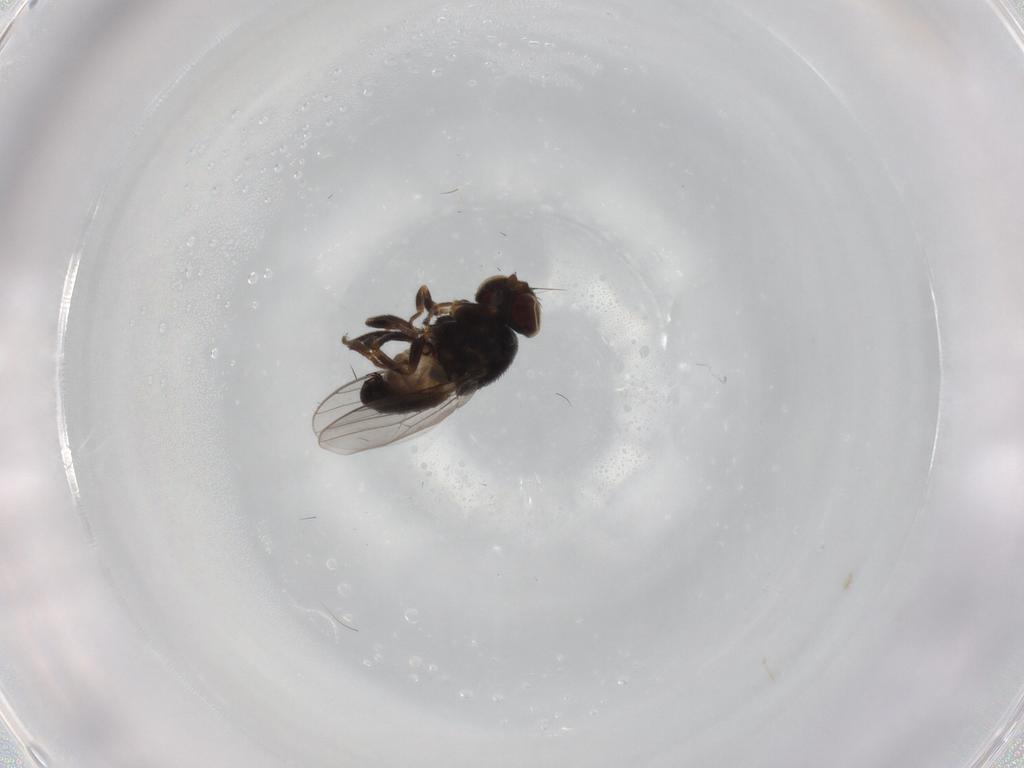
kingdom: Animalia
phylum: Arthropoda
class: Insecta
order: Diptera
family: Chloropidae
